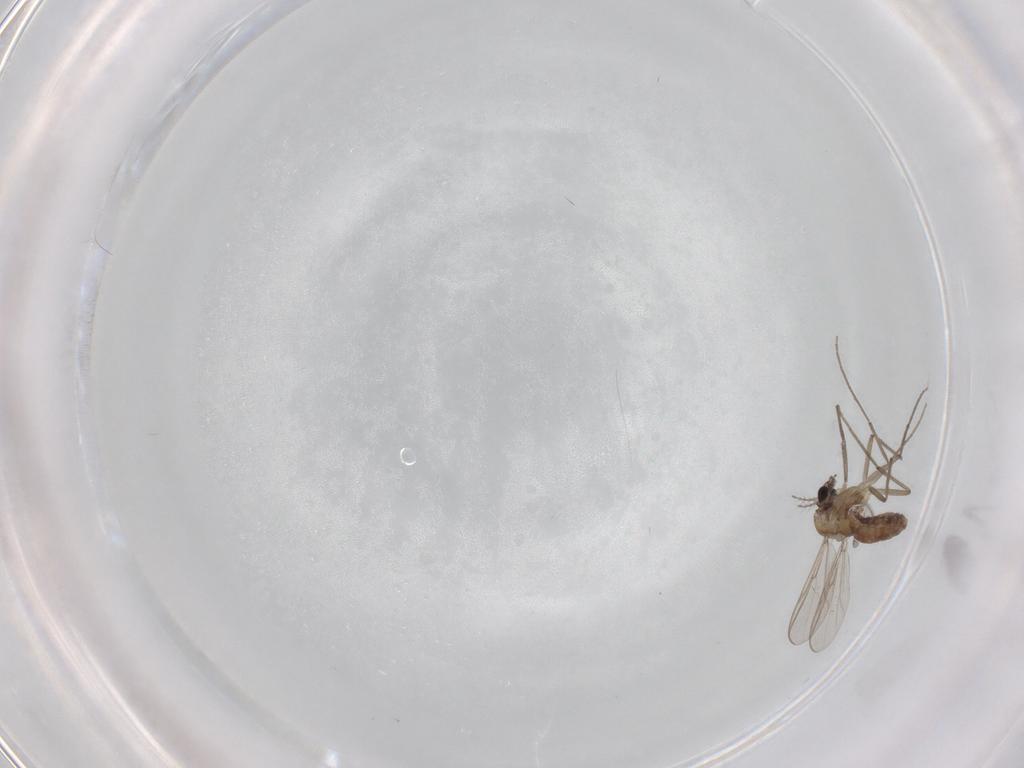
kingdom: Animalia
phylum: Arthropoda
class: Insecta
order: Diptera
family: Chironomidae
